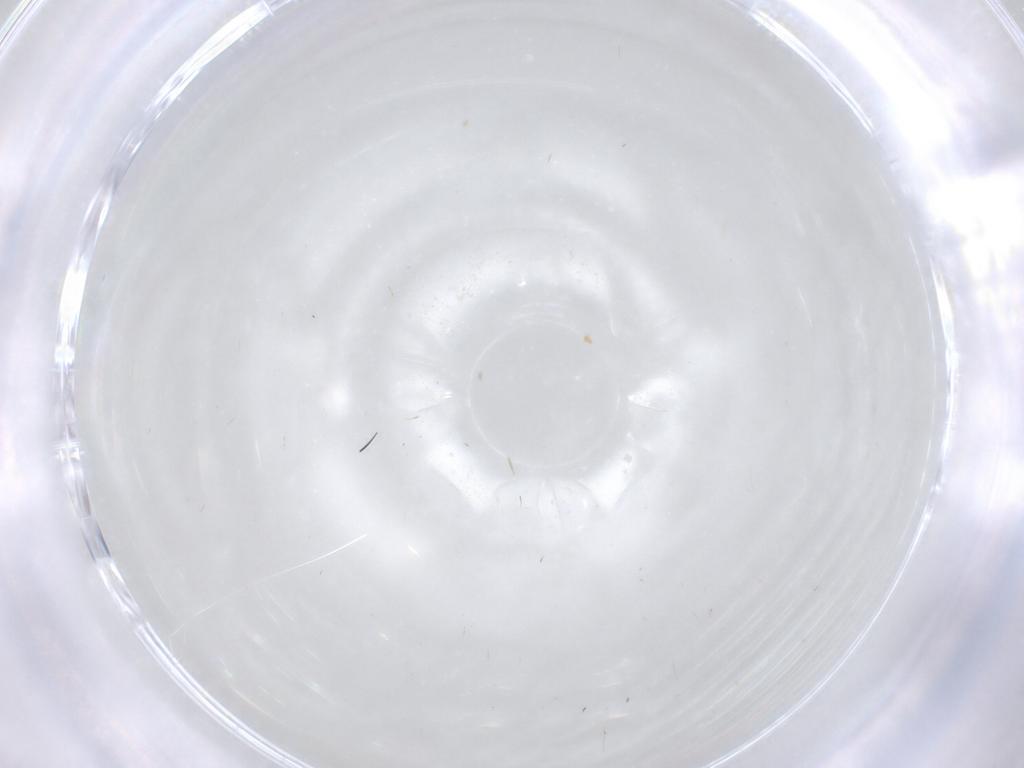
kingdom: Animalia
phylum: Arthropoda
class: Insecta
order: Diptera
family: Psychodidae
